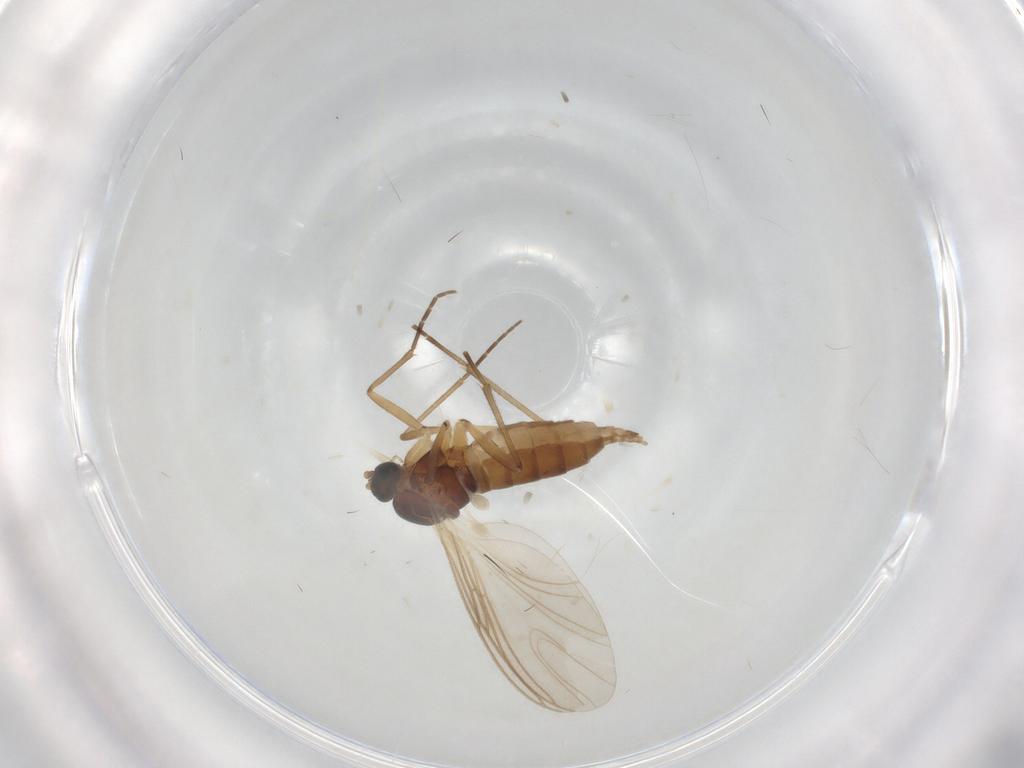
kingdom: Animalia
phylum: Arthropoda
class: Insecta
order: Diptera
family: Sciaridae
